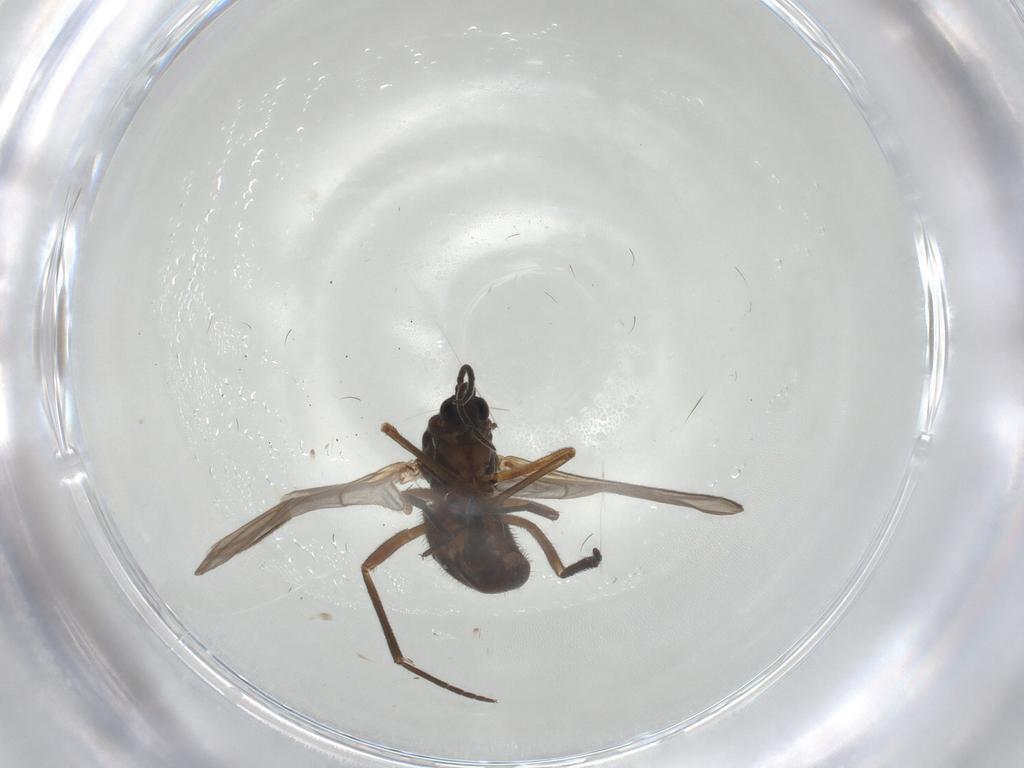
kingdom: Animalia
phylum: Arthropoda
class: Insecta
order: Diptera
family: Sciaridae
